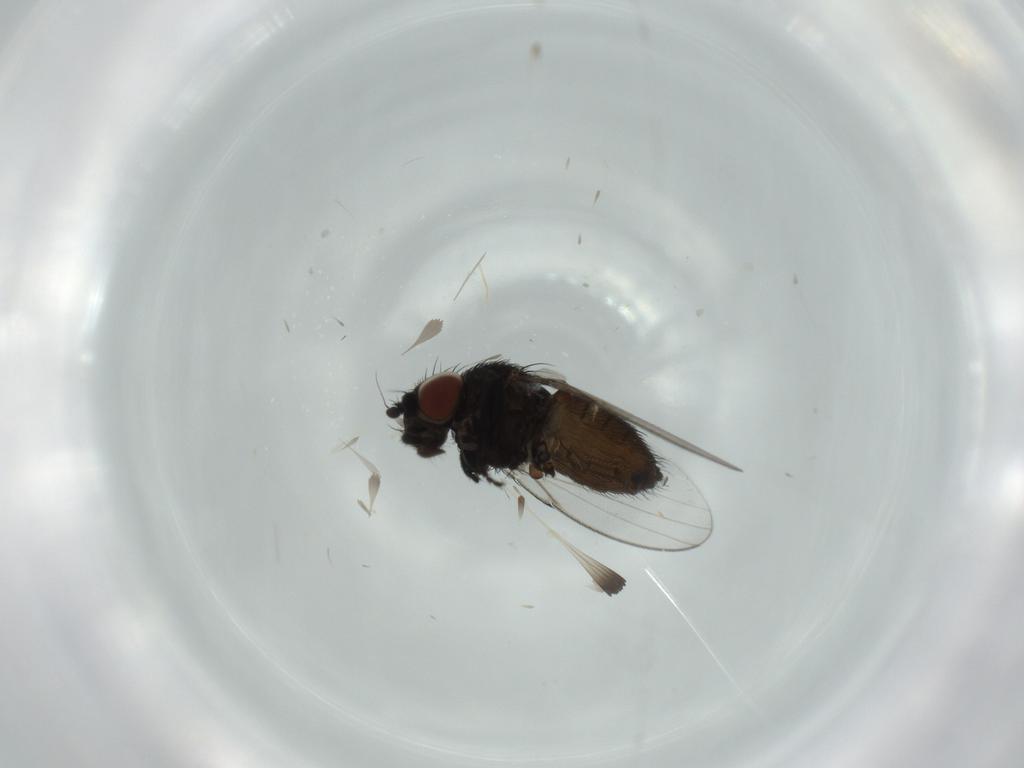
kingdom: Animalia
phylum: Arthropoda
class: Insecta
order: Diptera
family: Milichiidae
